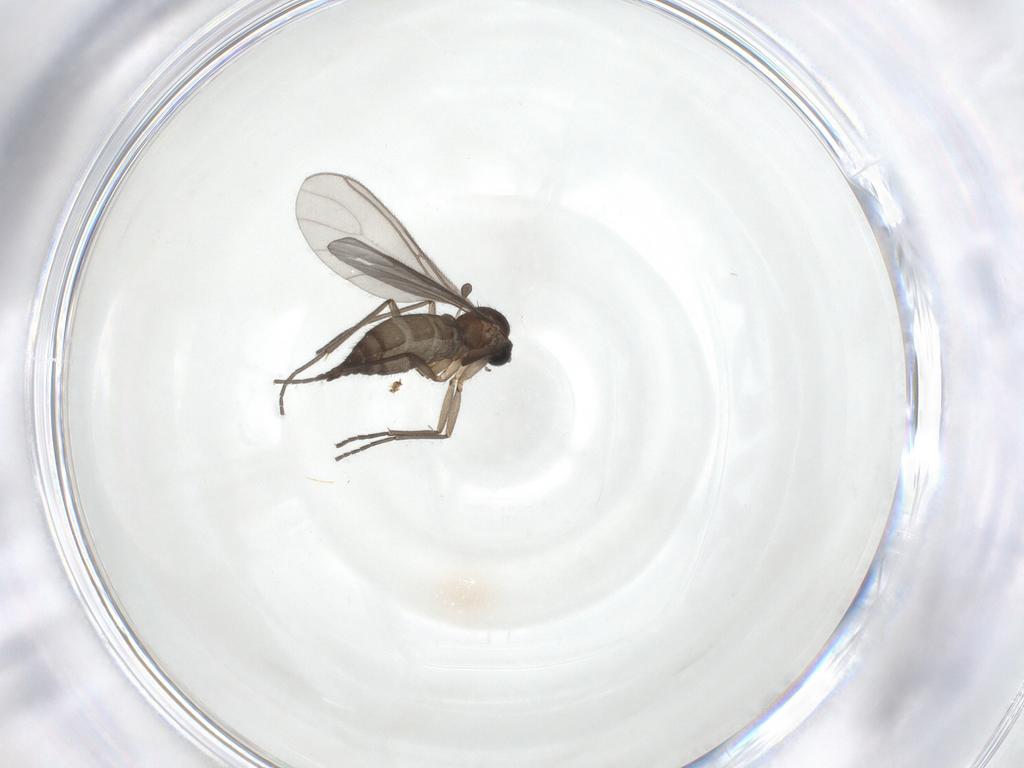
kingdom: Animalia
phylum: Arthropoda
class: Insecta
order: Diptera
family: Sciaridae
